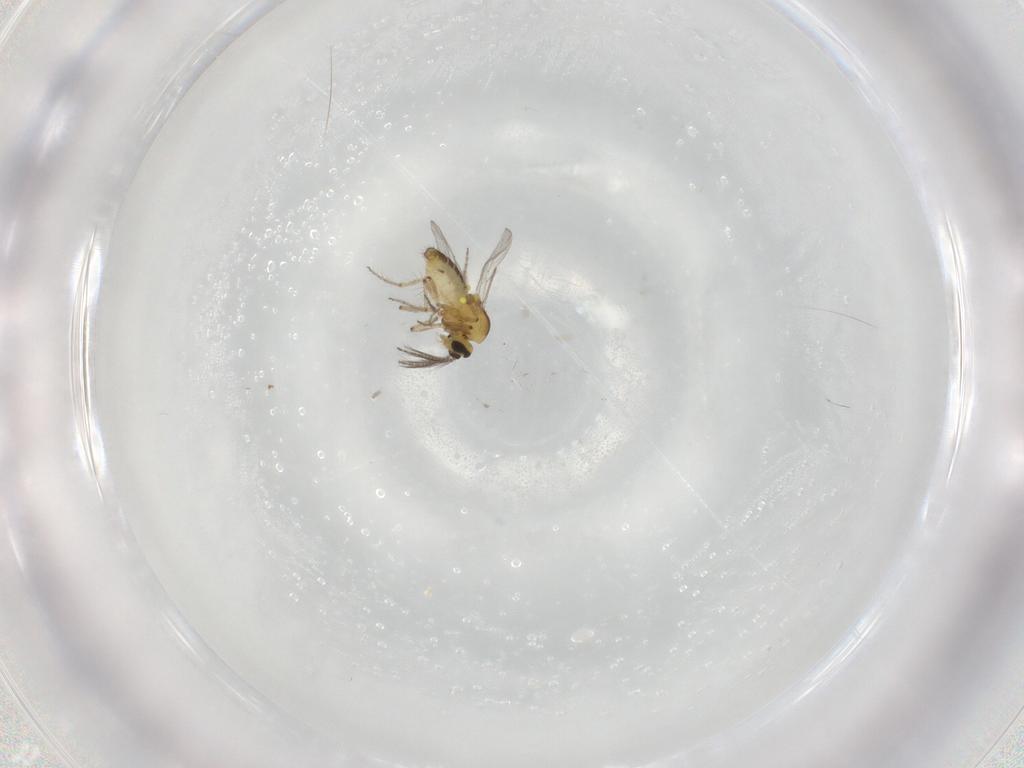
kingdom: Animalia
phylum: Arthropoda
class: Insecta
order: Diptera
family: Ceratopogonidae
